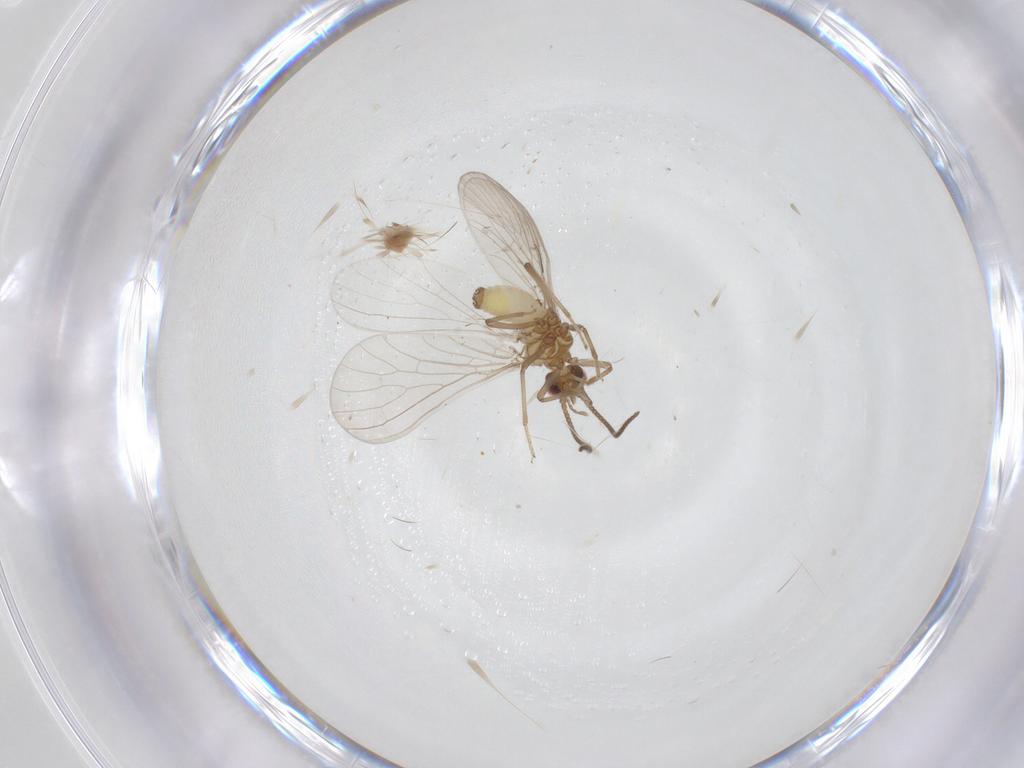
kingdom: Animalia
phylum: Arthropoda
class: Insecta
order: Neuroptera
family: Coniopterygidae
